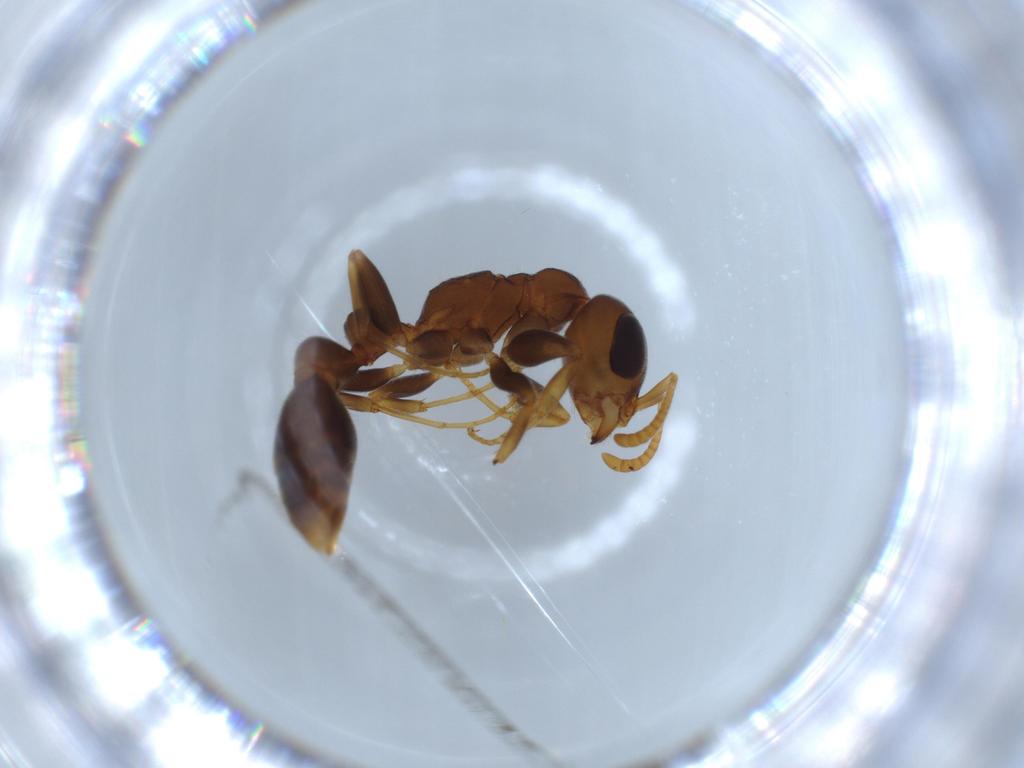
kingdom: Animalia
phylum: Arthropoda
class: Insecta
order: Hymenoptera
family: Formicidae
